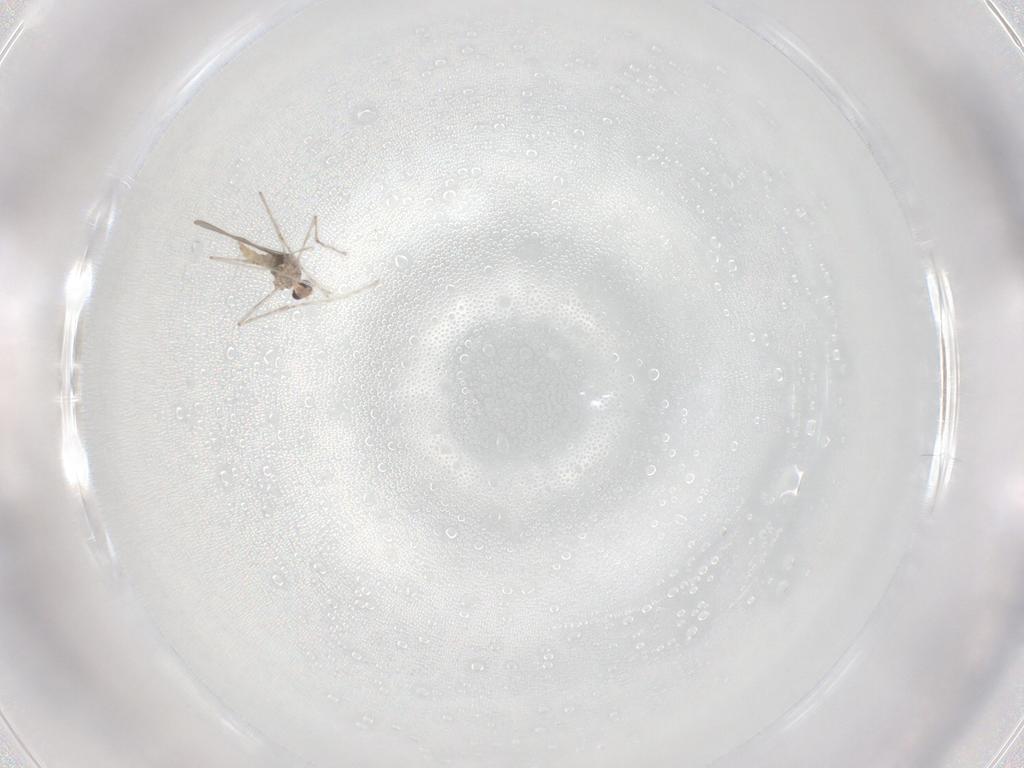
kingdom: Animalia
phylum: Arthropoda
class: Insecta
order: Diptera
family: Cecidomyiidae
